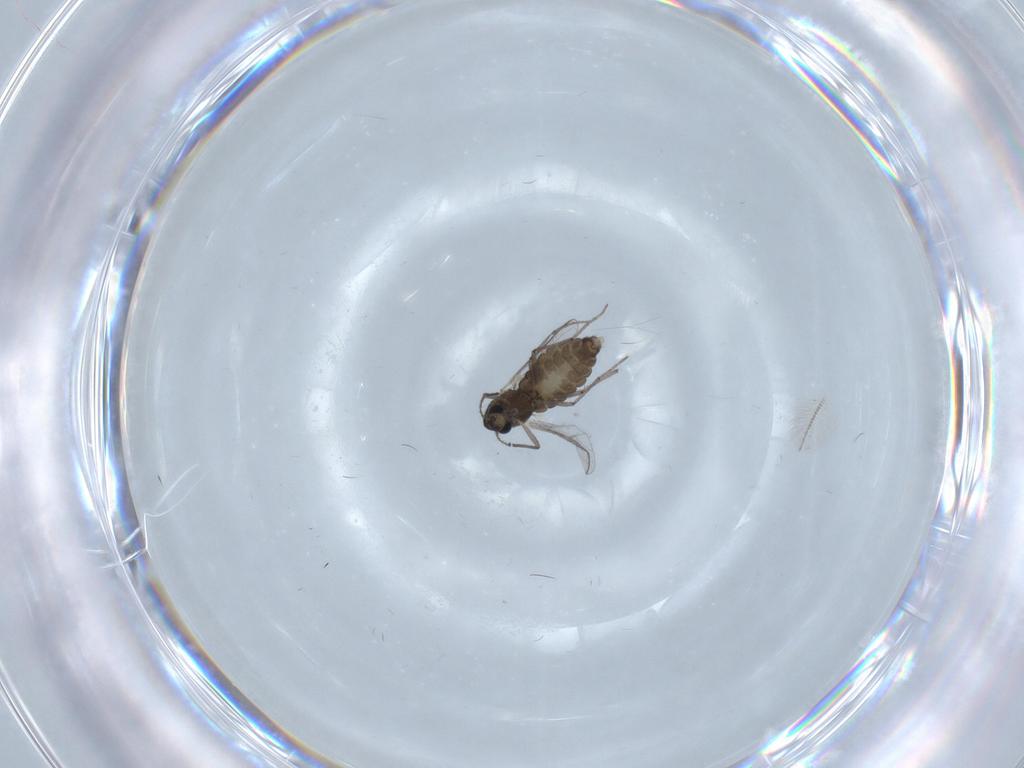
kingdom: Animalia
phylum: Arthropoda
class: Insecta
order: Diptera
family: Chironomidae
